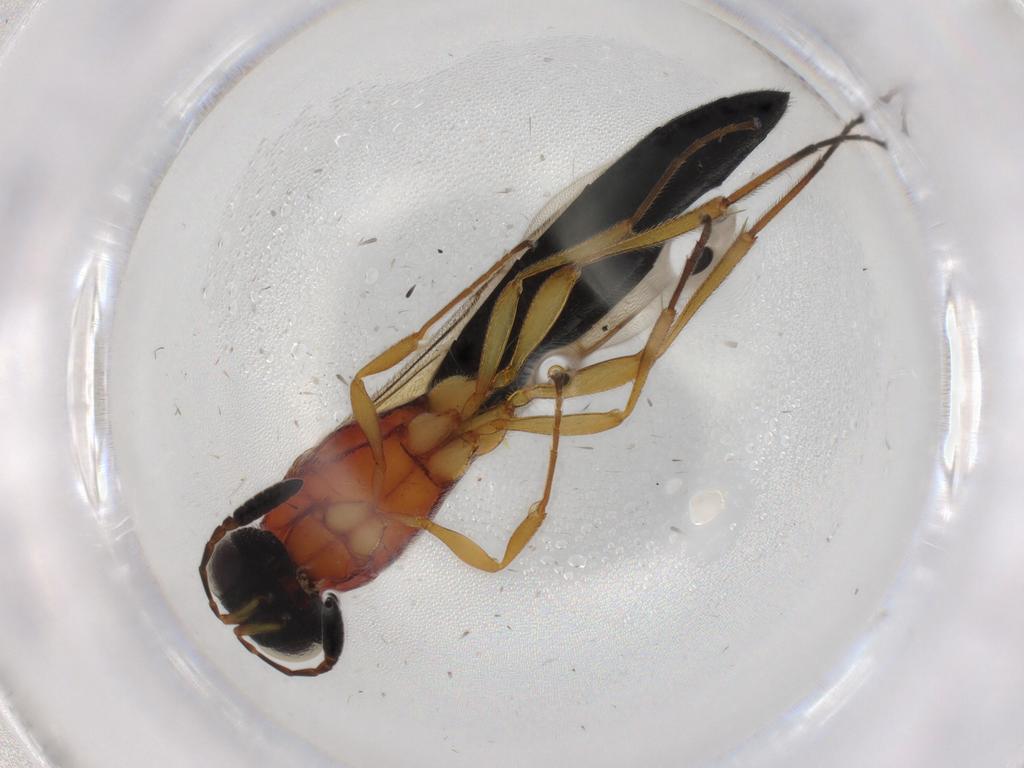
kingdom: Animalia
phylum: Arthropoda
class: Insecta
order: Hymenoptera
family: Scelionidae
